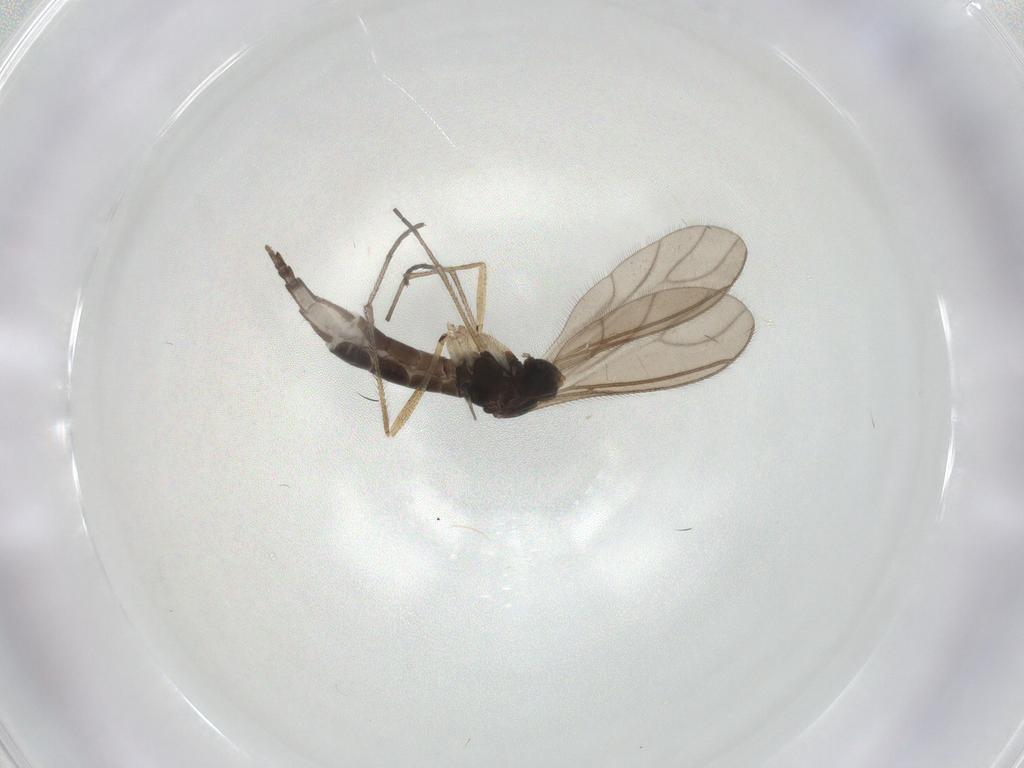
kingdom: Animalia
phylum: Arthropoda
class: Insecta
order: Diptera
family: Sciaridae
